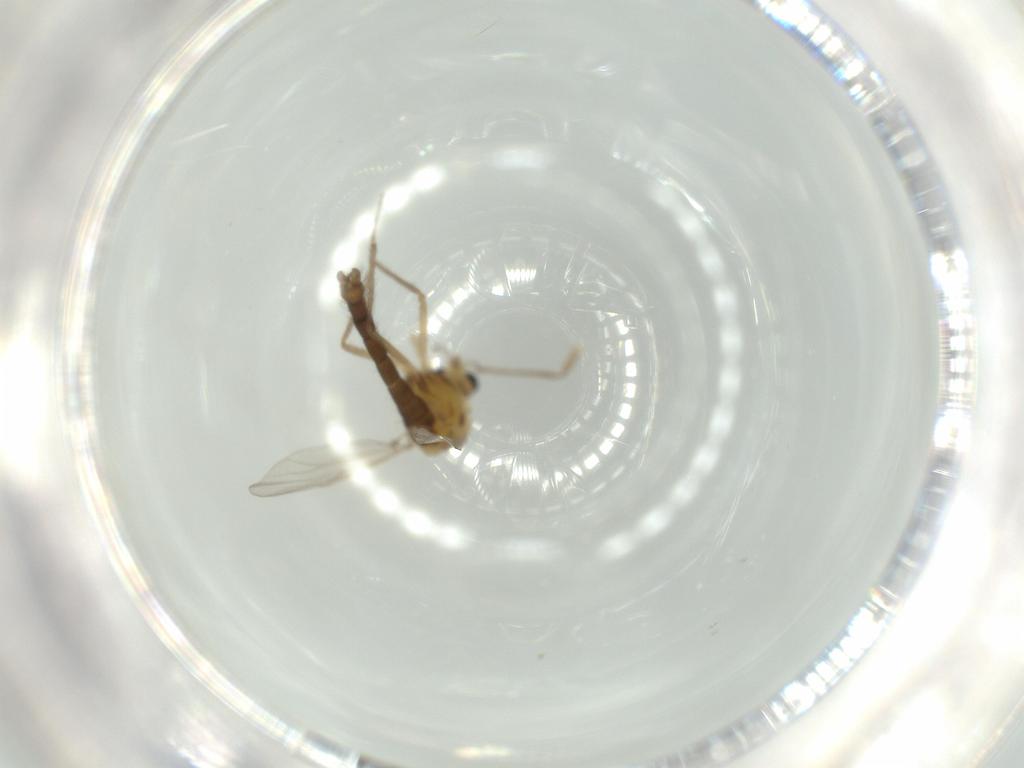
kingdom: Animalia
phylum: Arthropoda
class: Insecta
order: Diptera
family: Chironomidae
